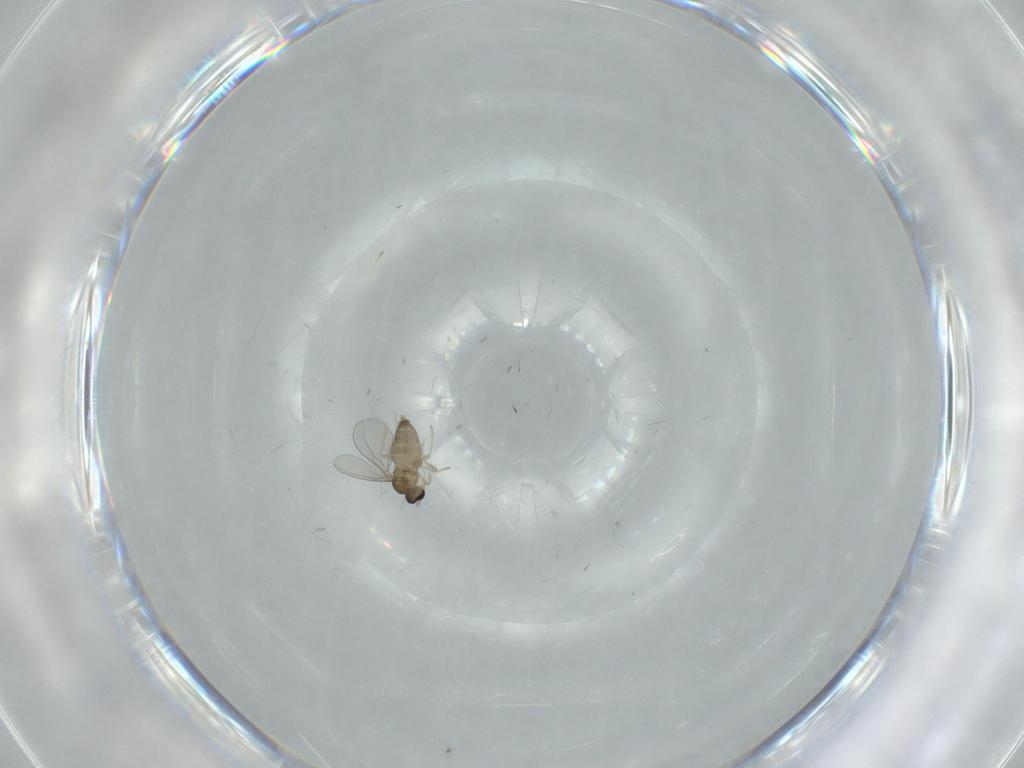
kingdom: Animalia
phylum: Arthropoda
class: Insecta
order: Diptera
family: Cecidomyiidae
